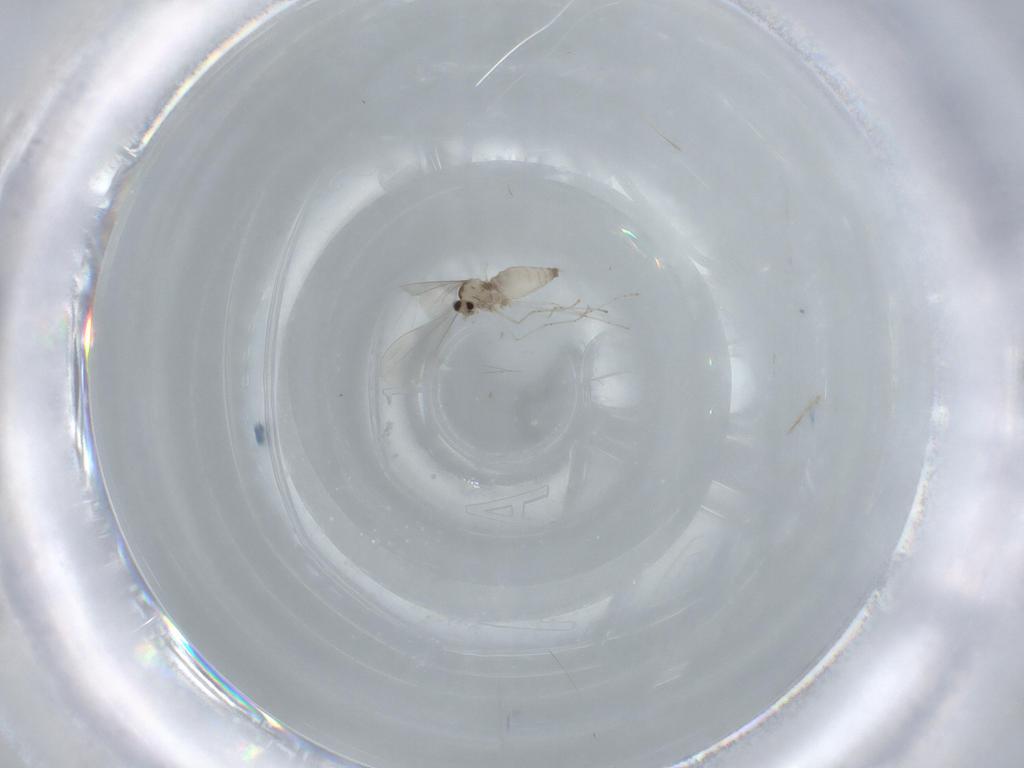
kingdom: Animalia
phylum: Arthropoda
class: Insecta
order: Diptera
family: Sciaridae
